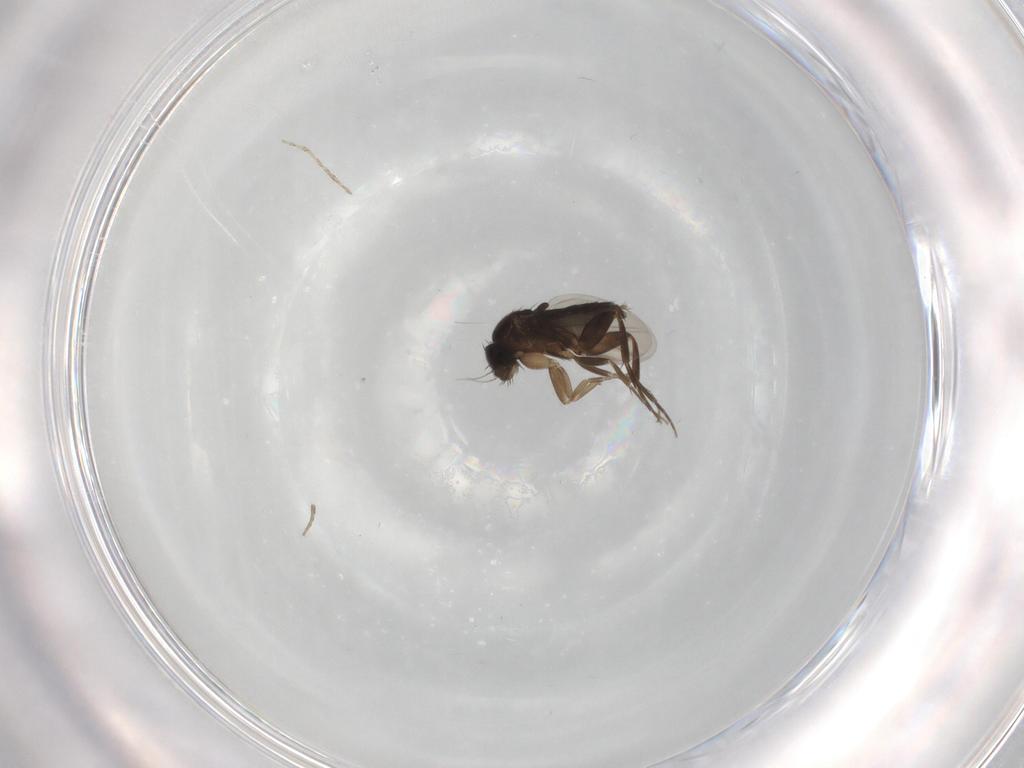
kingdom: Animalia
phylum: Arthropoda
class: Insecta
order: Diptera
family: Phoridae
